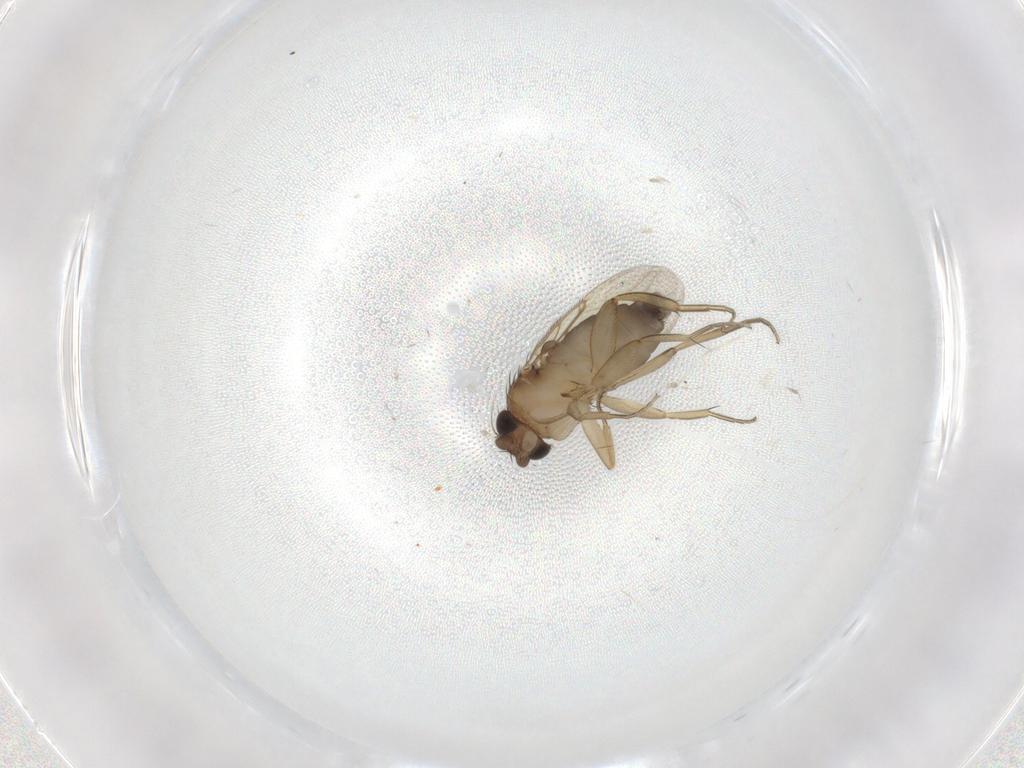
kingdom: Animalia
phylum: Arthropoda
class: Insecta
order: Diptera
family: Phoridae
